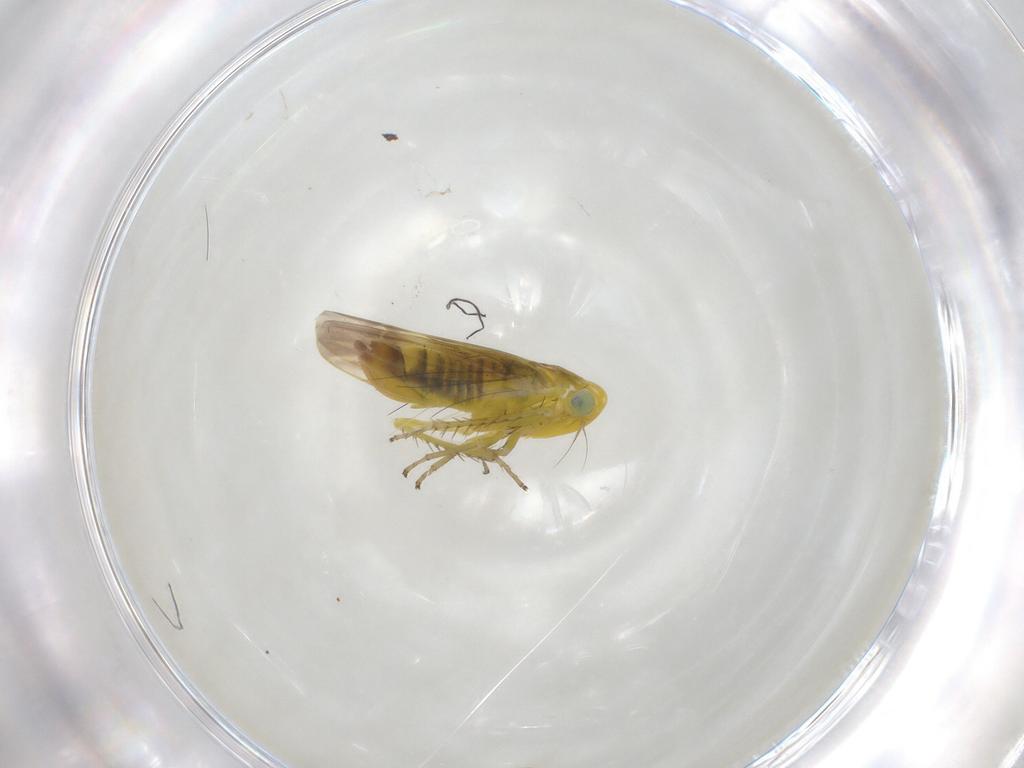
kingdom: Animalia
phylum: Arthropoda
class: Insecta
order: Hemiptera
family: Cicadellidae
